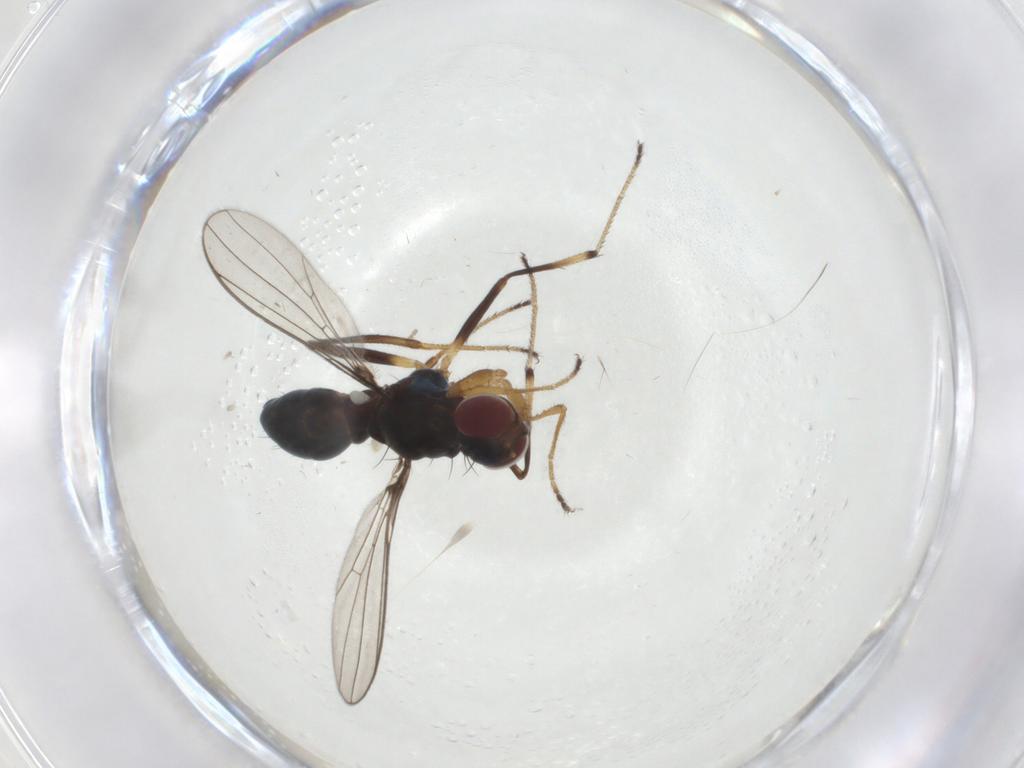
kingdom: Animalia
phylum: Arthropoda
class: Insecta
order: Diptera
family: Sepsidae
